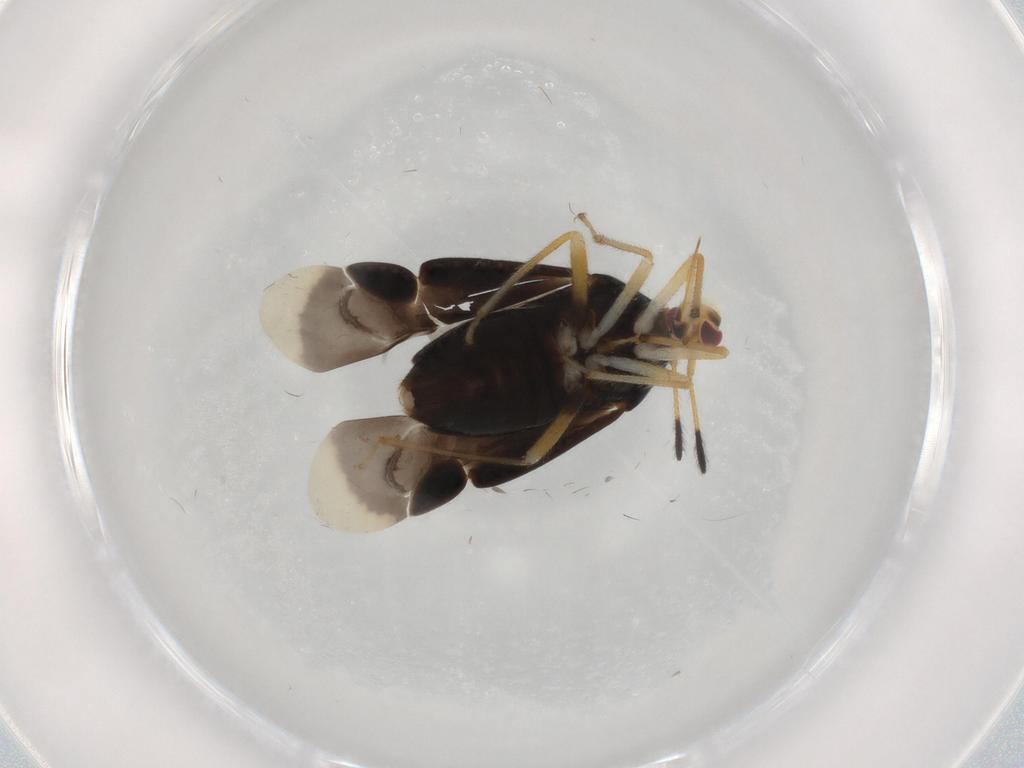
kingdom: Animalia
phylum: Arthropoda
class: Insecta
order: Hemiptera
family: Miridae
